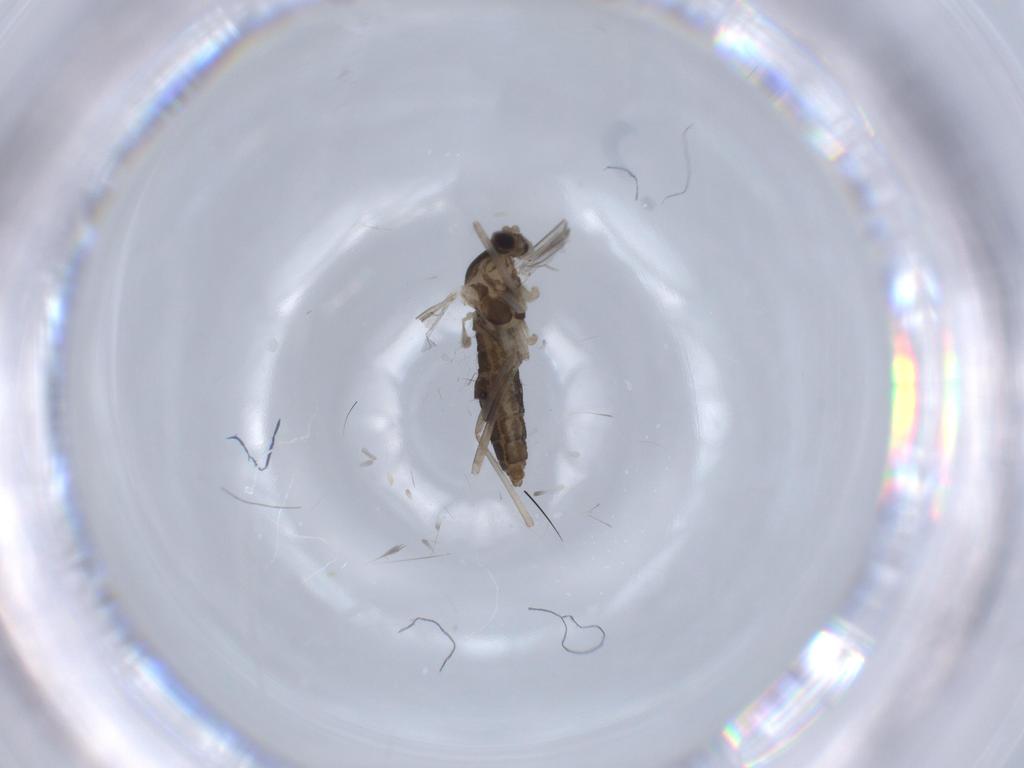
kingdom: Animalia
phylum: Arthropoda
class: Insecta
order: Diptera
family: Cecidomyiidae
